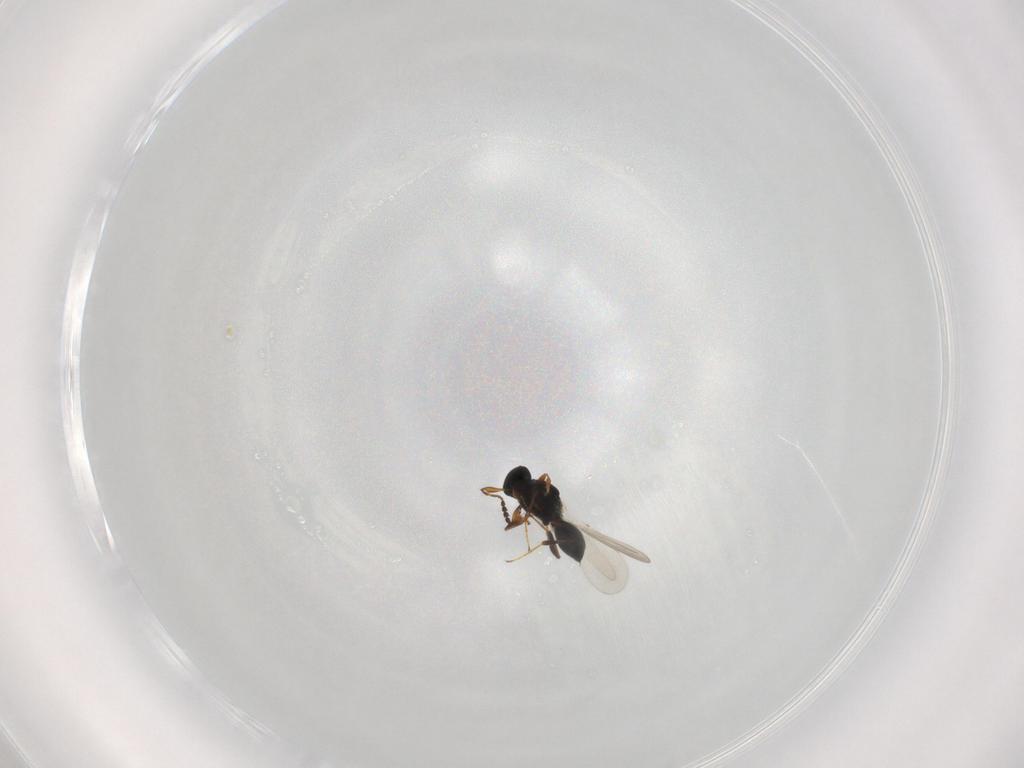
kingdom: Animalia
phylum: Arthropoda
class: Insecta
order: Hymenoptera
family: Platygastridae
